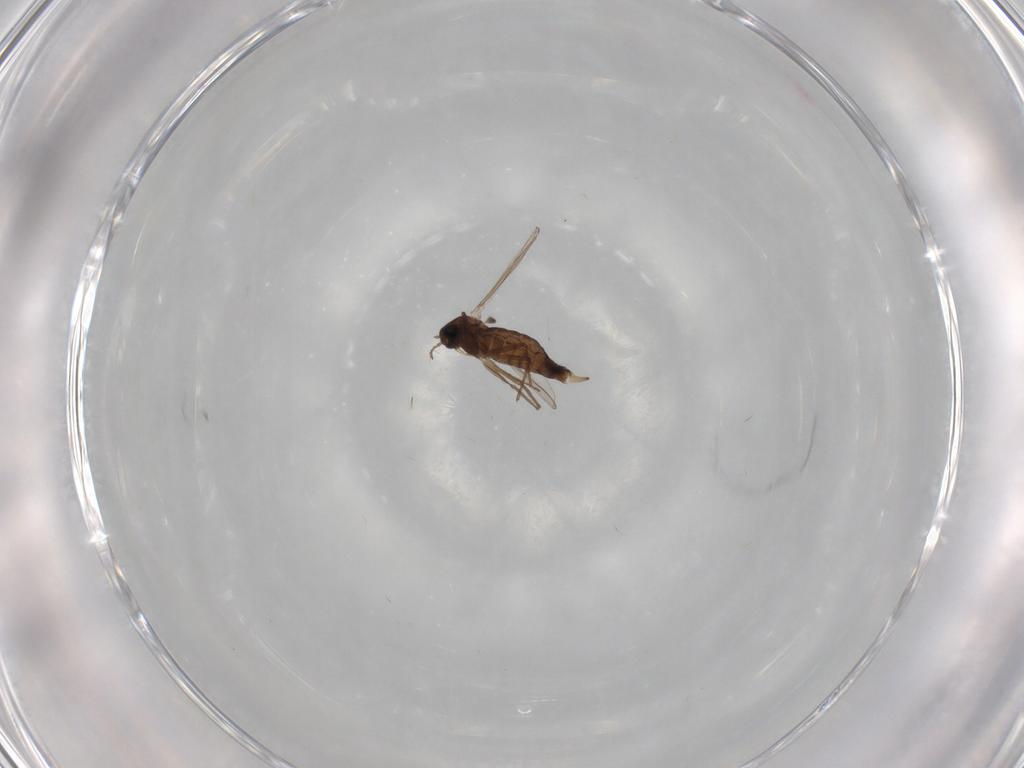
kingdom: Animalia
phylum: Arthropoda
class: Insecta
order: Diptera
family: Chironomidae
